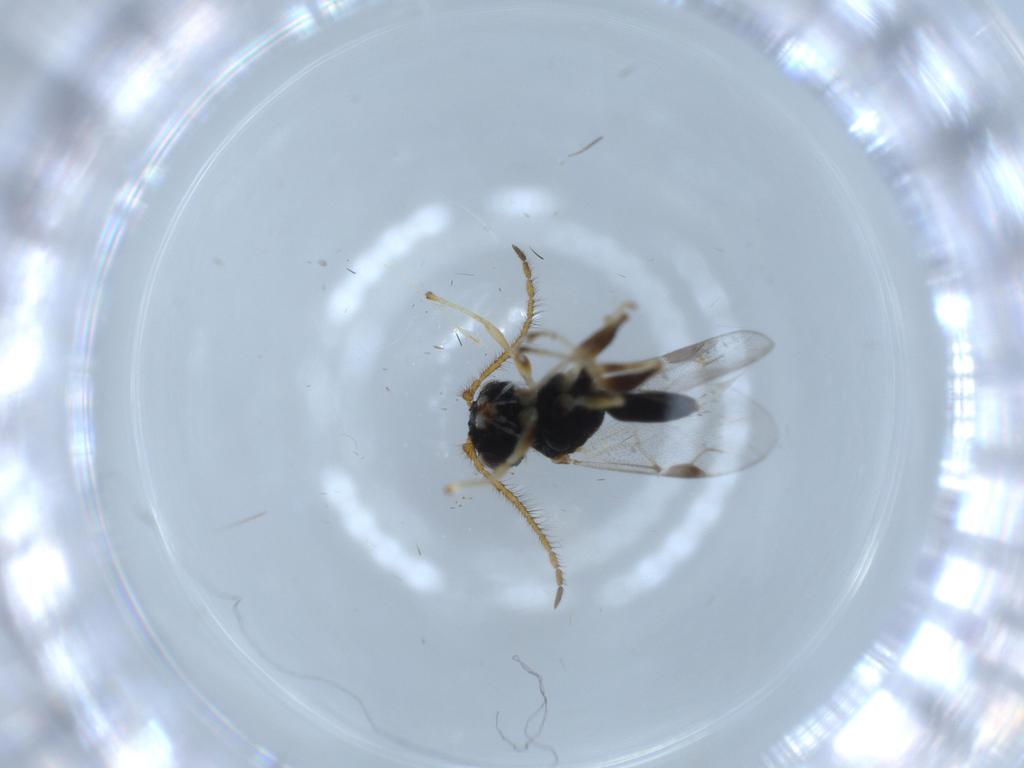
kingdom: Animalia
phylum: Arthropoda
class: Insecta
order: Hymenoptera
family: Dryinidae
